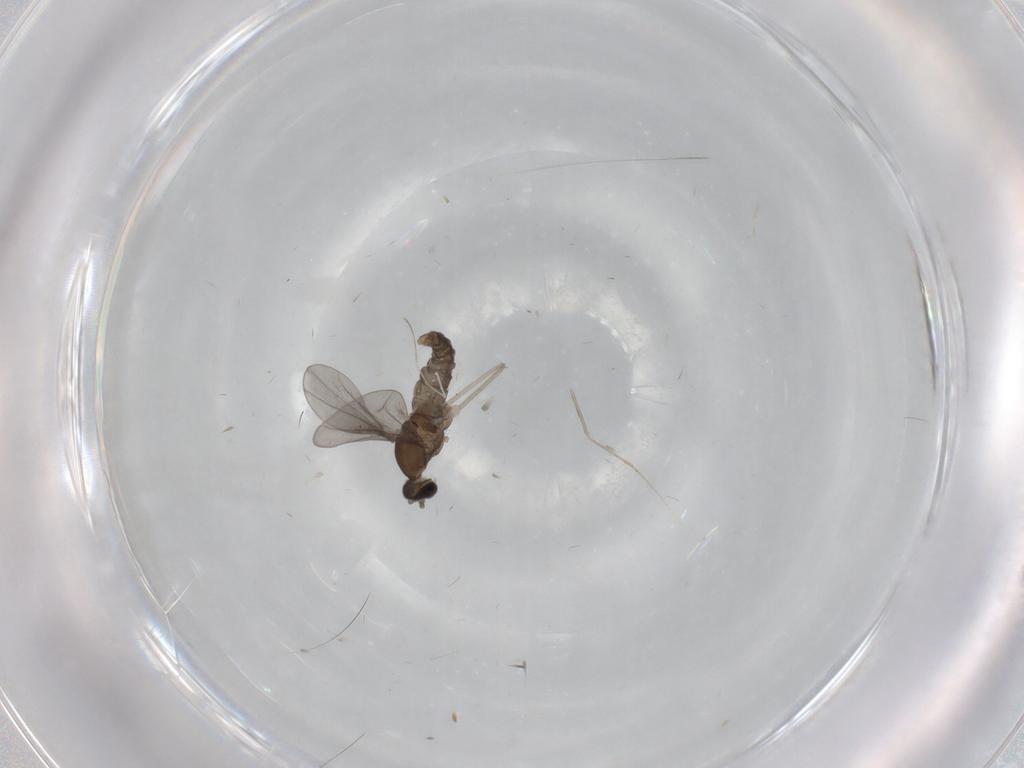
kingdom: Animalia
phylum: Arthropoda
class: Insecta
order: Diptera
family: Cecidomyiidae
